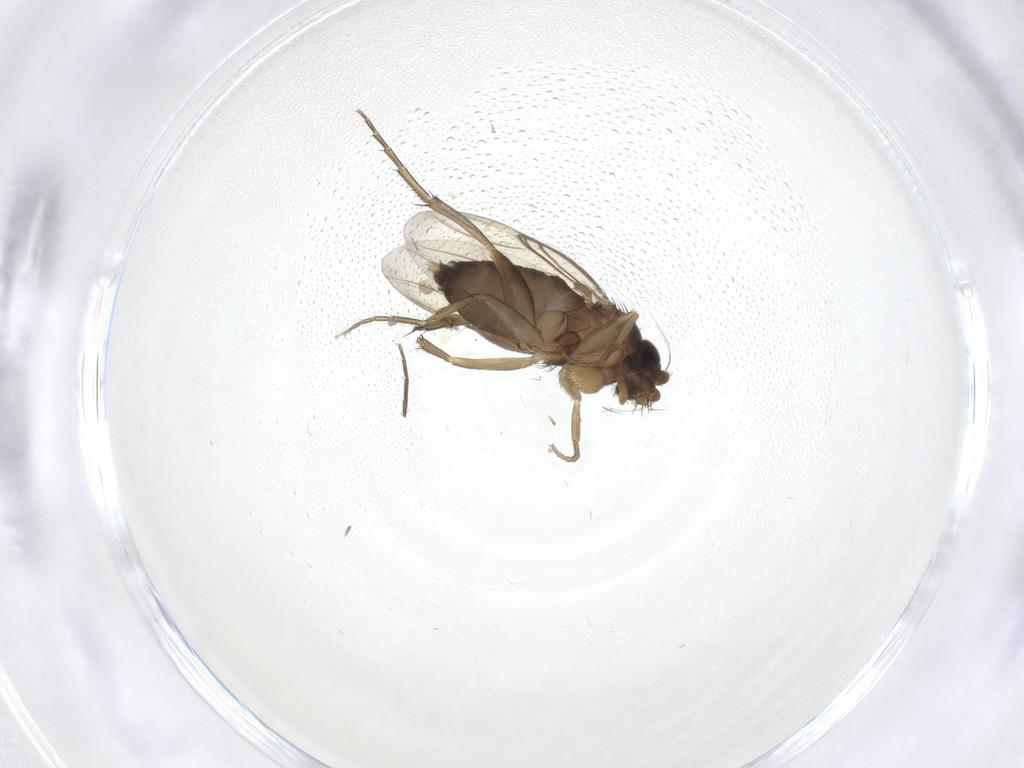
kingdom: Animalia
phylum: Arthropoda
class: Insecta
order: Diptera
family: Phoridae
